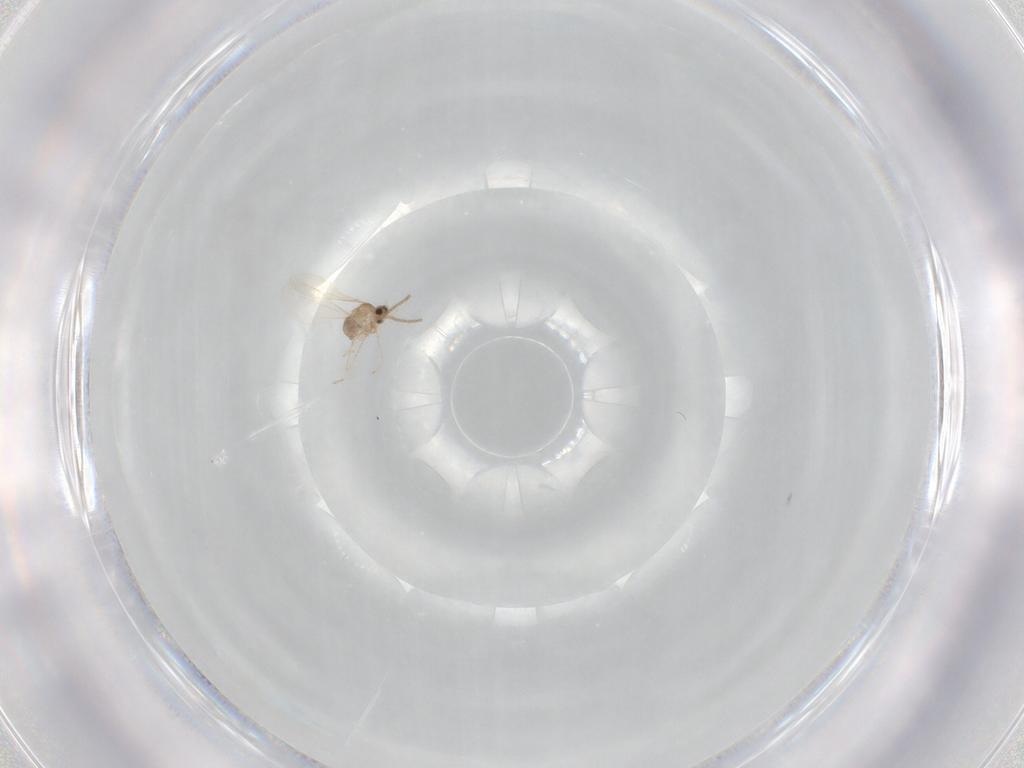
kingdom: Animalia
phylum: Arthropoda
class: Insecta
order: Diptera
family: Cecidomyiidae
